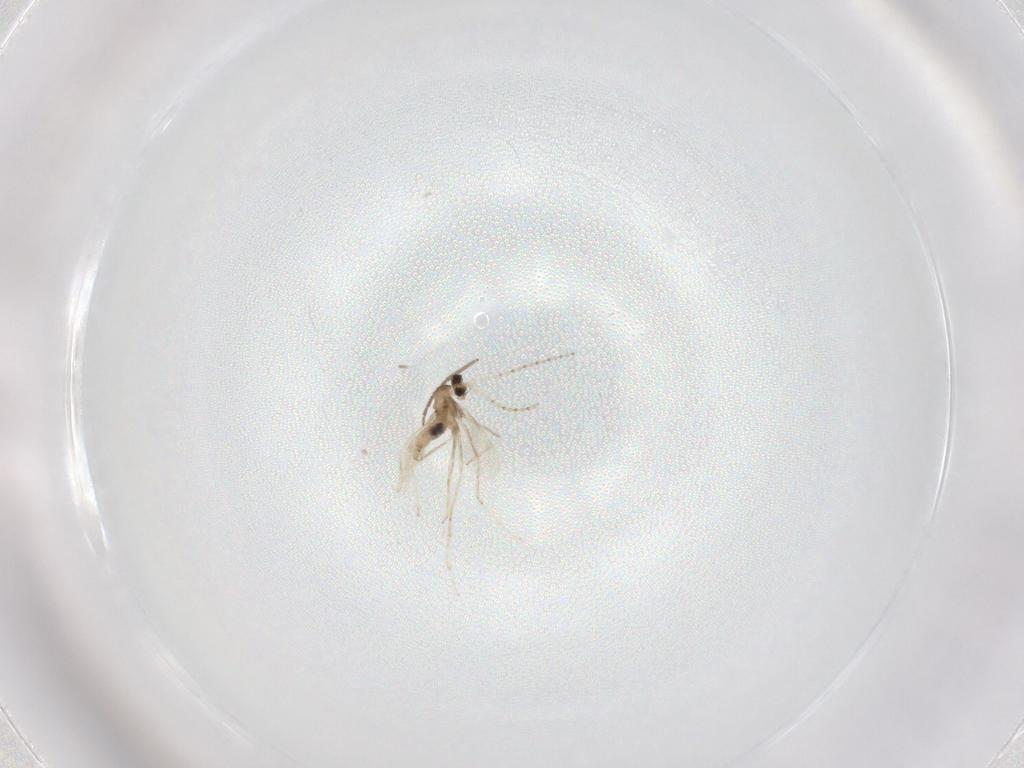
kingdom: Animalia
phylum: Arthropoda
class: Insecta
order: Diptera
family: Cecidomyiidae
